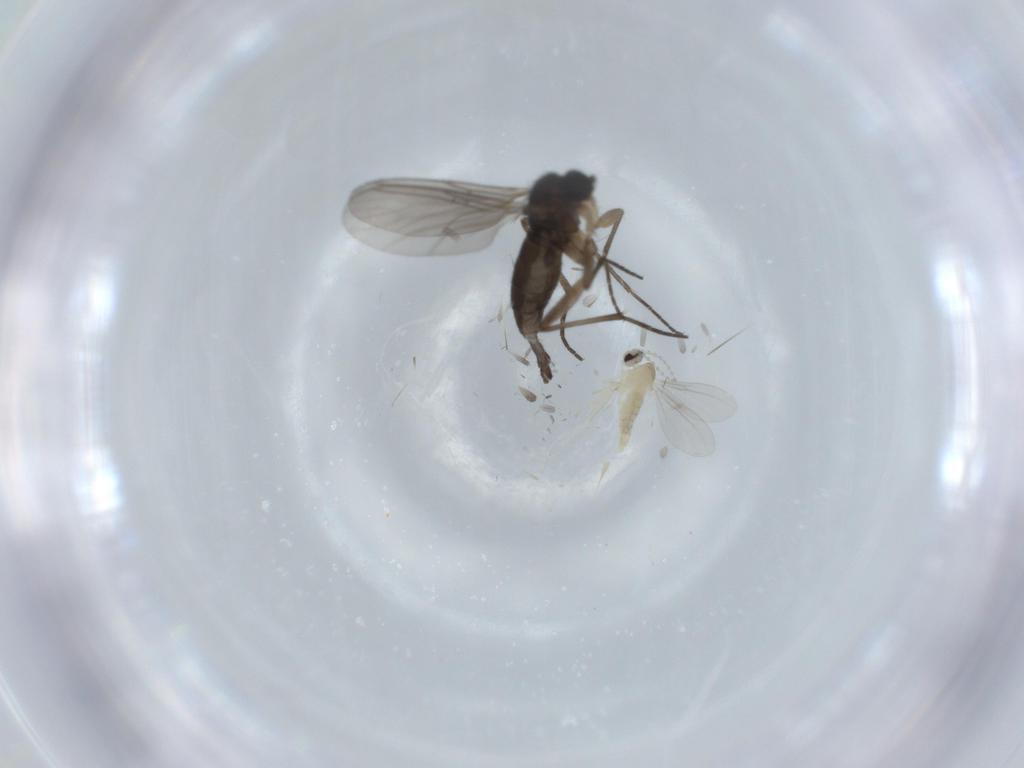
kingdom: Animalia
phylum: Arthropoda
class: Insecta
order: Diptera
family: Sciaridae
